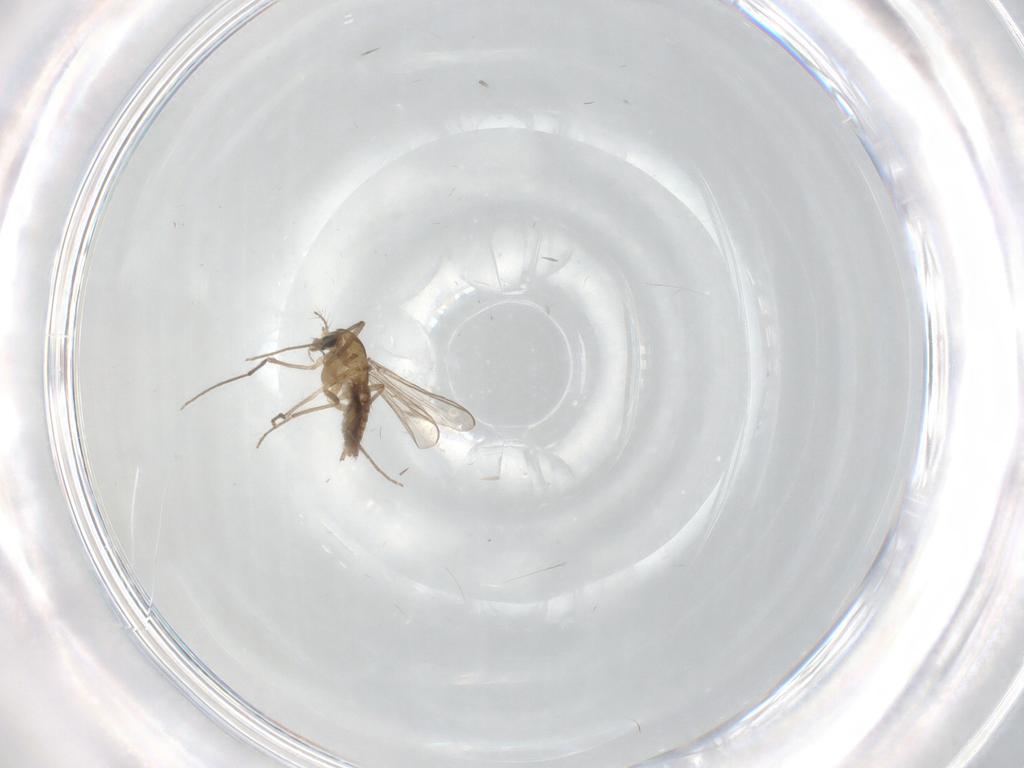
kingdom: Animalia
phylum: Arthropoda
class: Insecta
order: Diptera
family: Chironomidae
